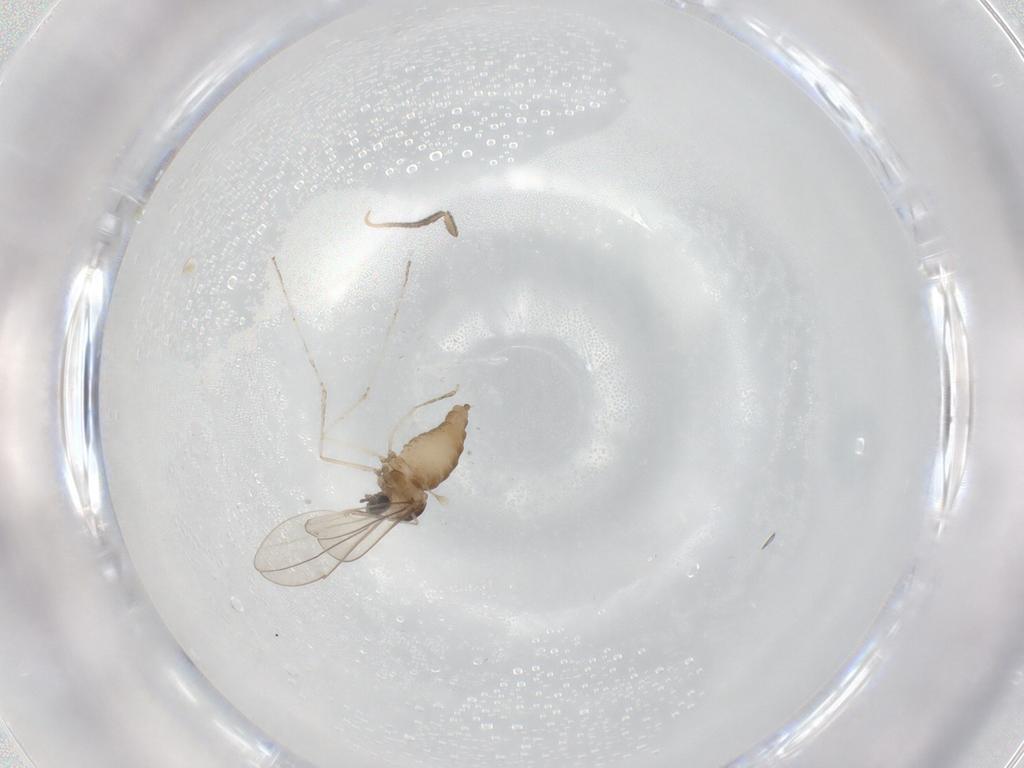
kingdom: Animalia
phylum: Arthropoda
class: Insecta
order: Diptera
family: Cecidomyiidae
